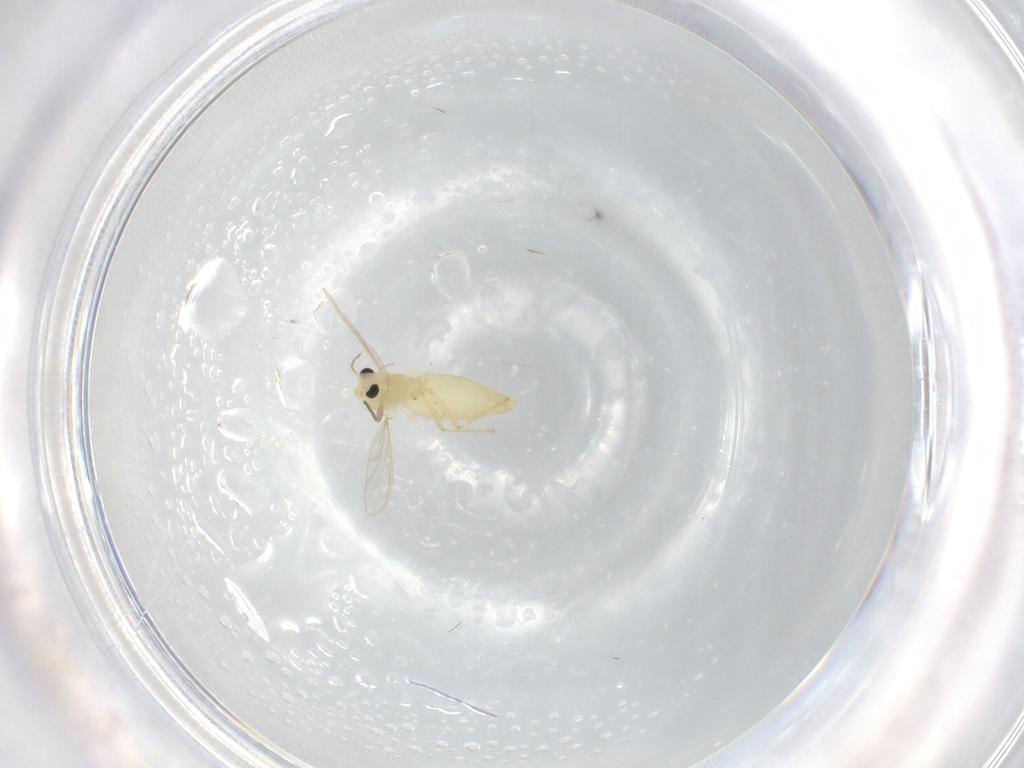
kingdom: Animalia
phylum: Arthropoda
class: Insecta
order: Diptera
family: Chironomidae
